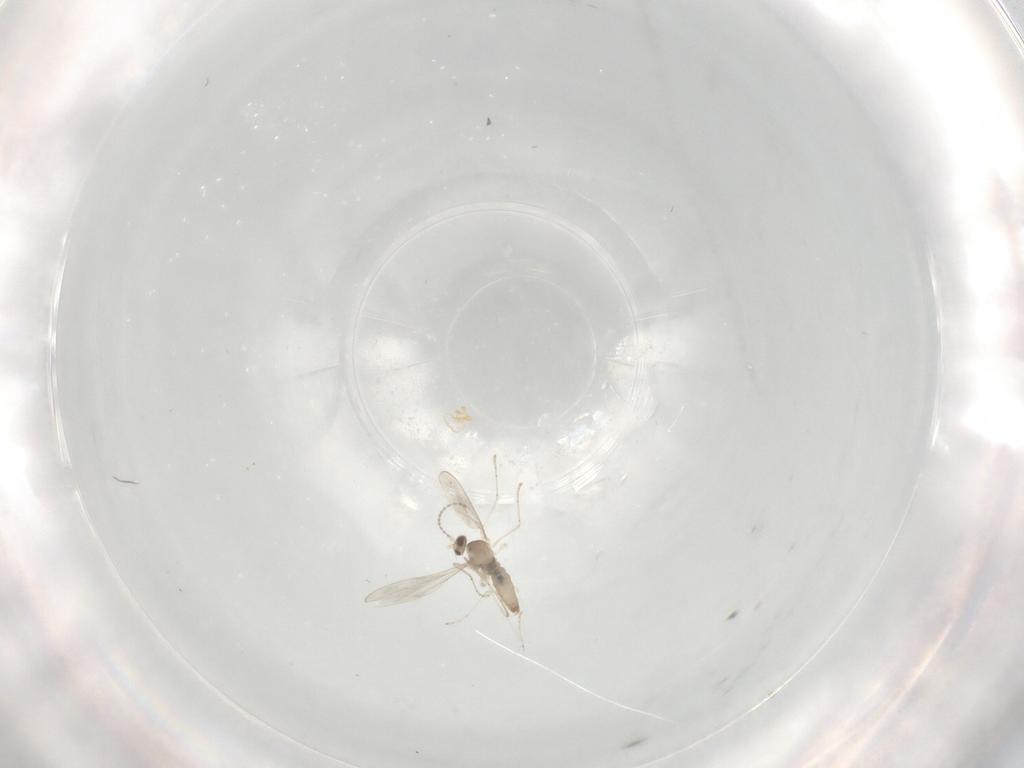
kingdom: Animalia
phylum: Arthropoda
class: Insecta
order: Diptera
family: Cecidomyiidae
